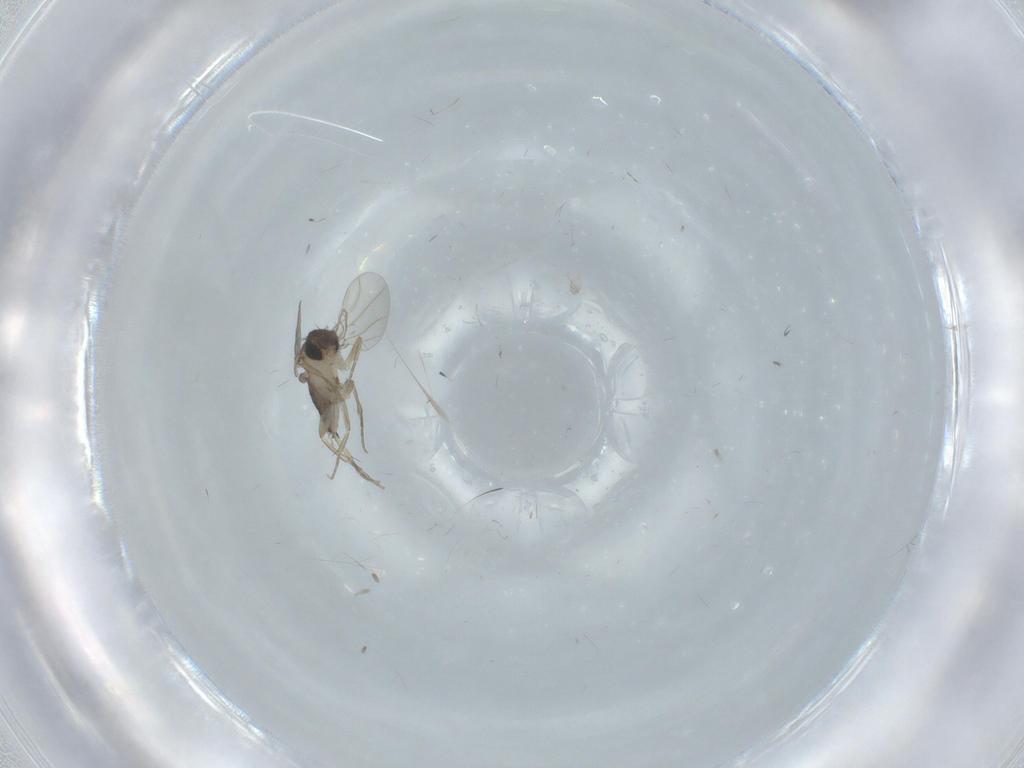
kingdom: Animalia
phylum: Arthropoda
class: Insecta
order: Diptera
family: Phoridae
